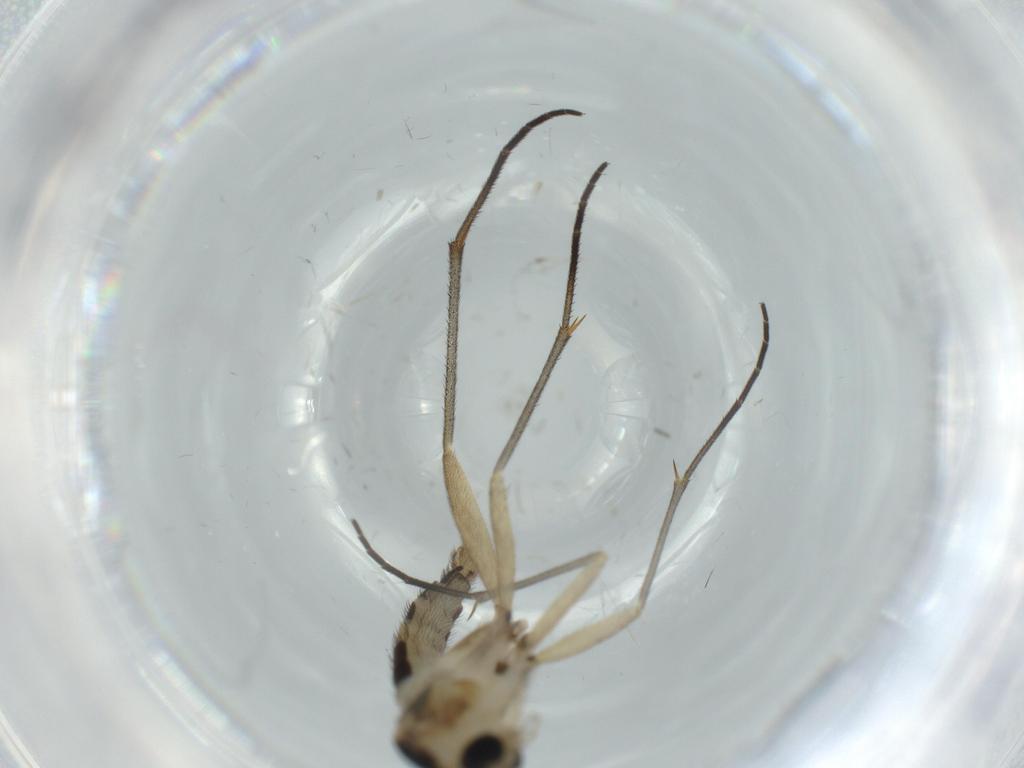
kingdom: Animalia
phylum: Arthropoda
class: Insecta
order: Diptera
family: Sciaridae
